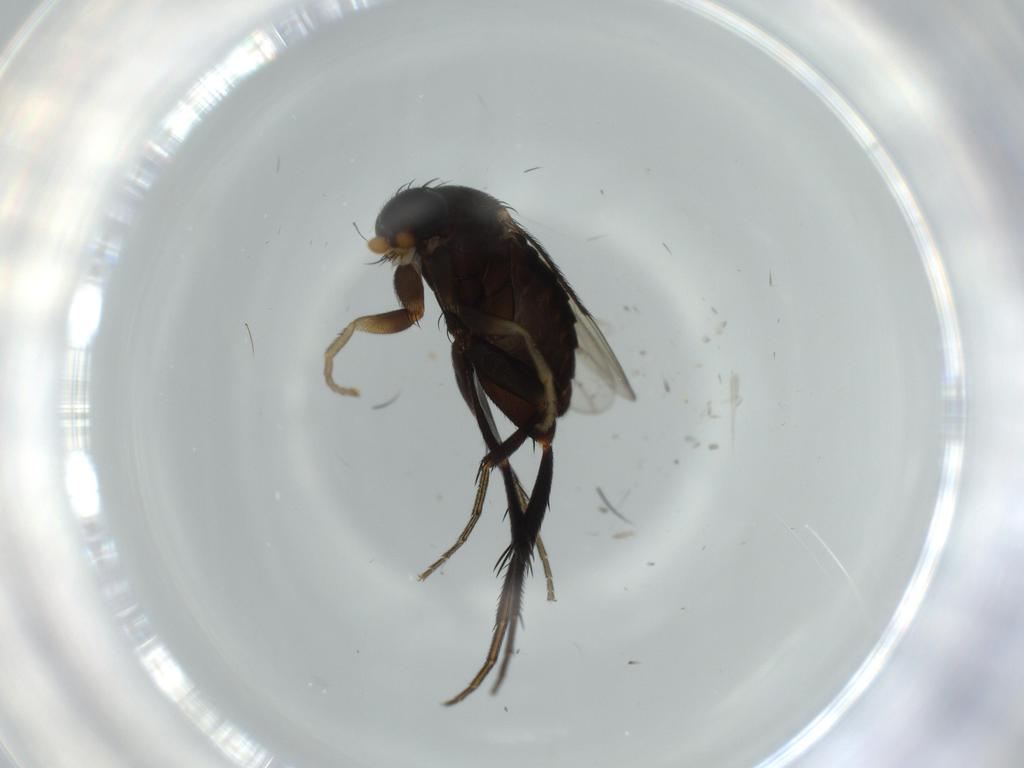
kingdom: Animalia
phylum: Arthropoda
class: Insecta
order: Diptera
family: Phoridae
